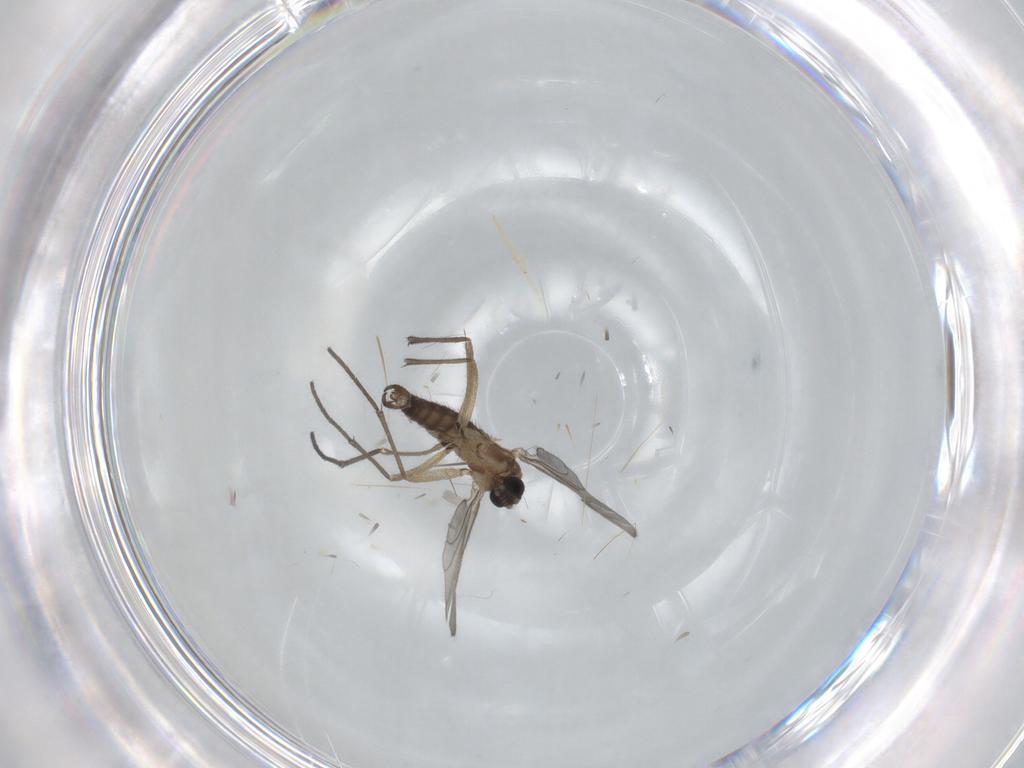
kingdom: Animalia
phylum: Arthropoda
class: Insecta
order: Diptera
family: Sciaridae
